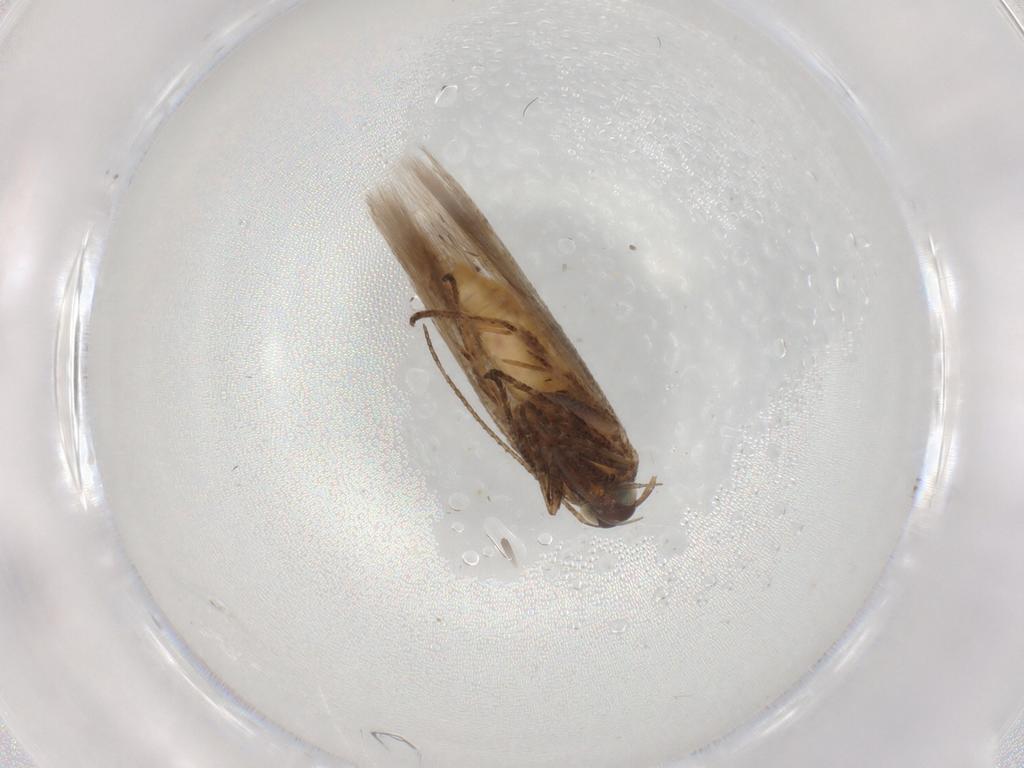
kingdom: Animalia
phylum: Arthropoda
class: Insecta
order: Lepidoptera
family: Gelechiidae
